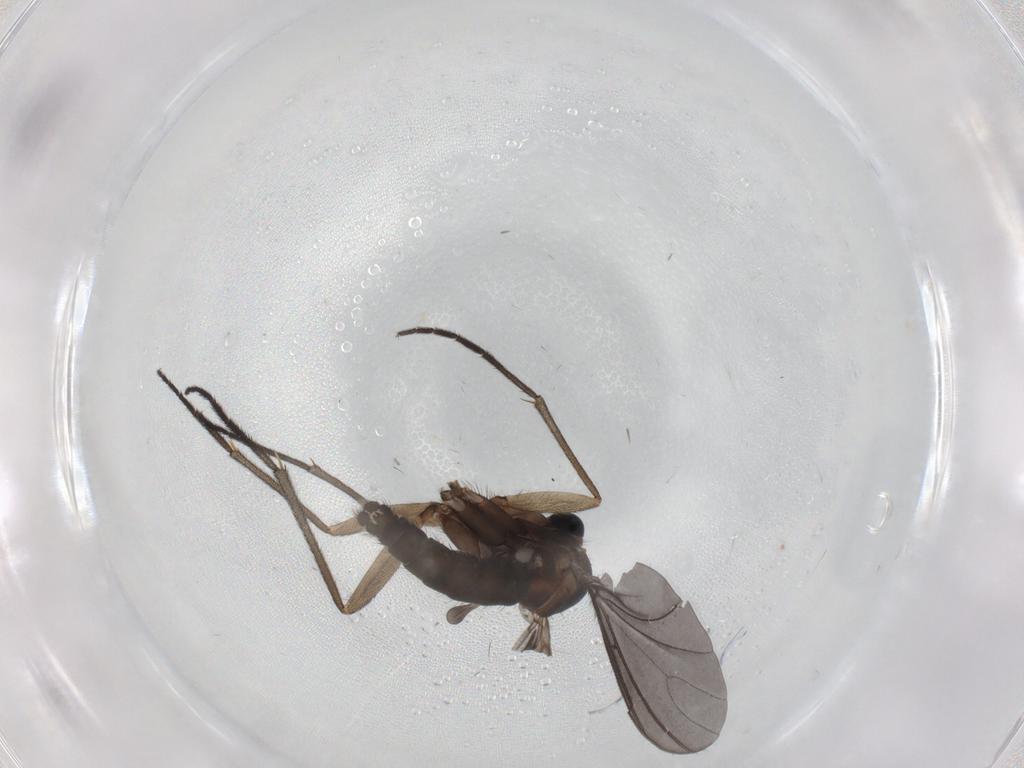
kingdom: Animalia
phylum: Arthropoda
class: Insecta
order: Diptera
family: Sciaridae
